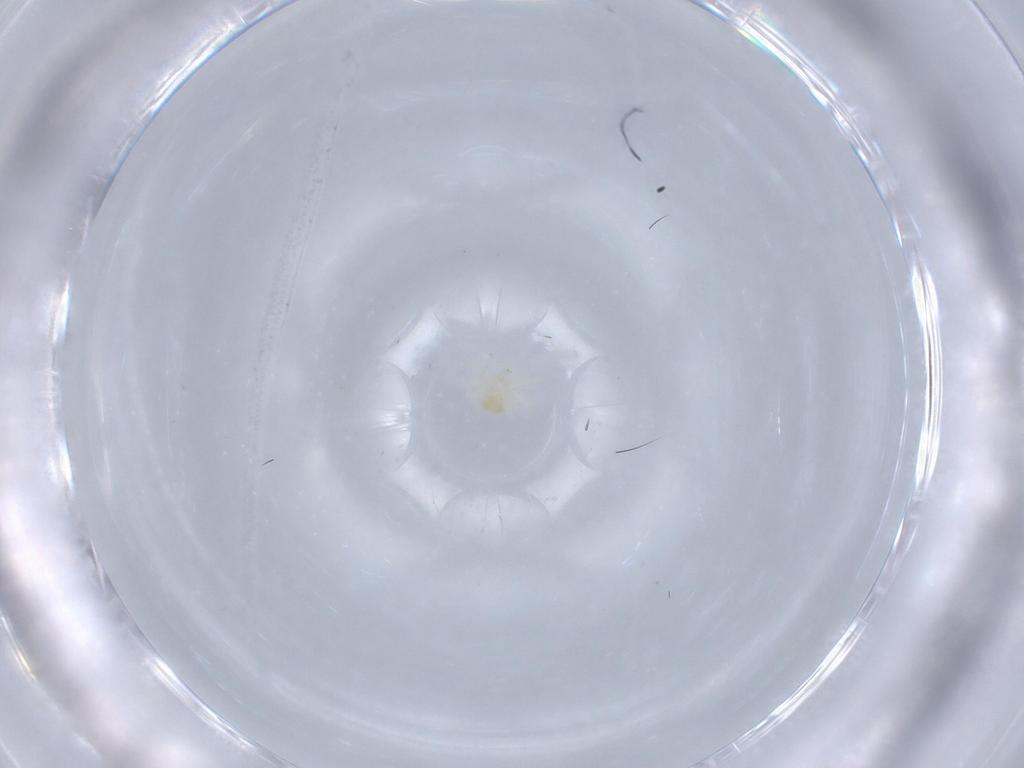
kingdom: Animalia
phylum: Arthropoda
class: Arachnida
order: Trombidiformes
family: Anystidae
